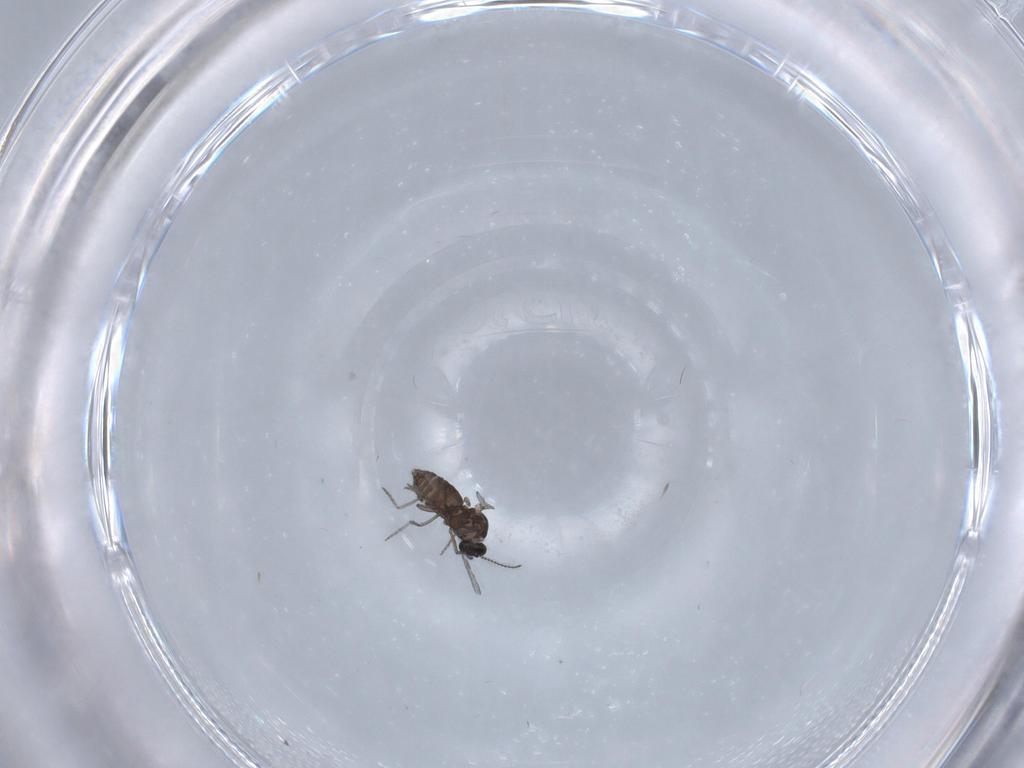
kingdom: Animalia
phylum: Arthropoda
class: Insecta
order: Diptera
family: Ceratopogonidae
